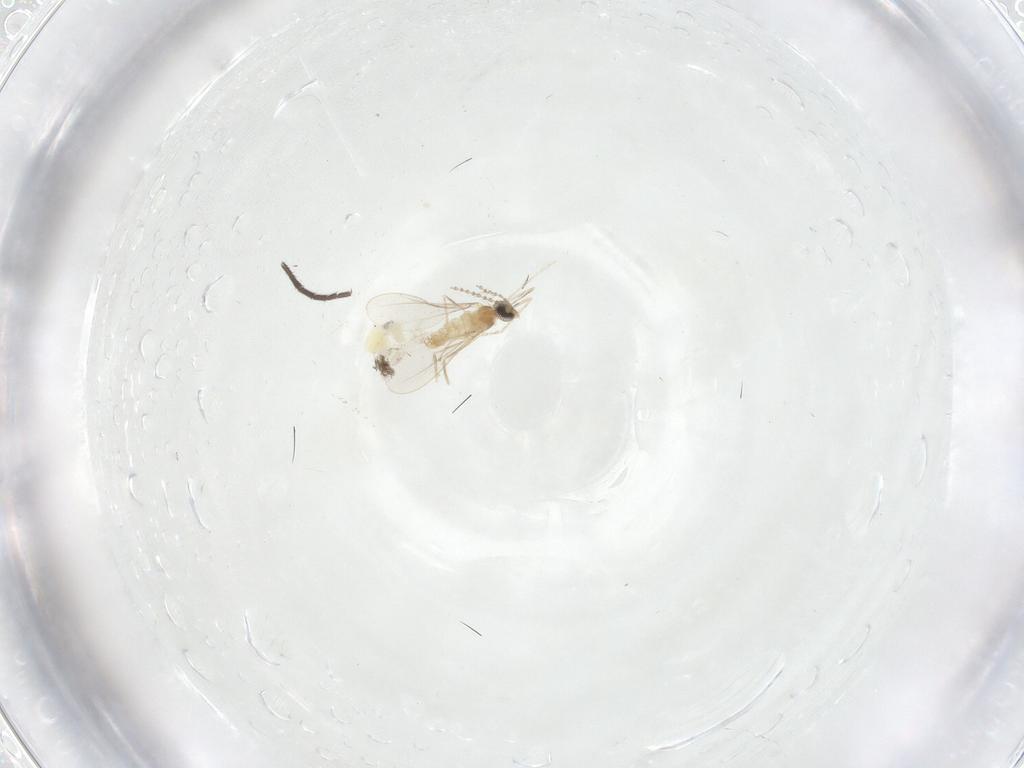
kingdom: Animalia
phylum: Arthropoda
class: Insecta
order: Diptera
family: Cecidomyiidae
